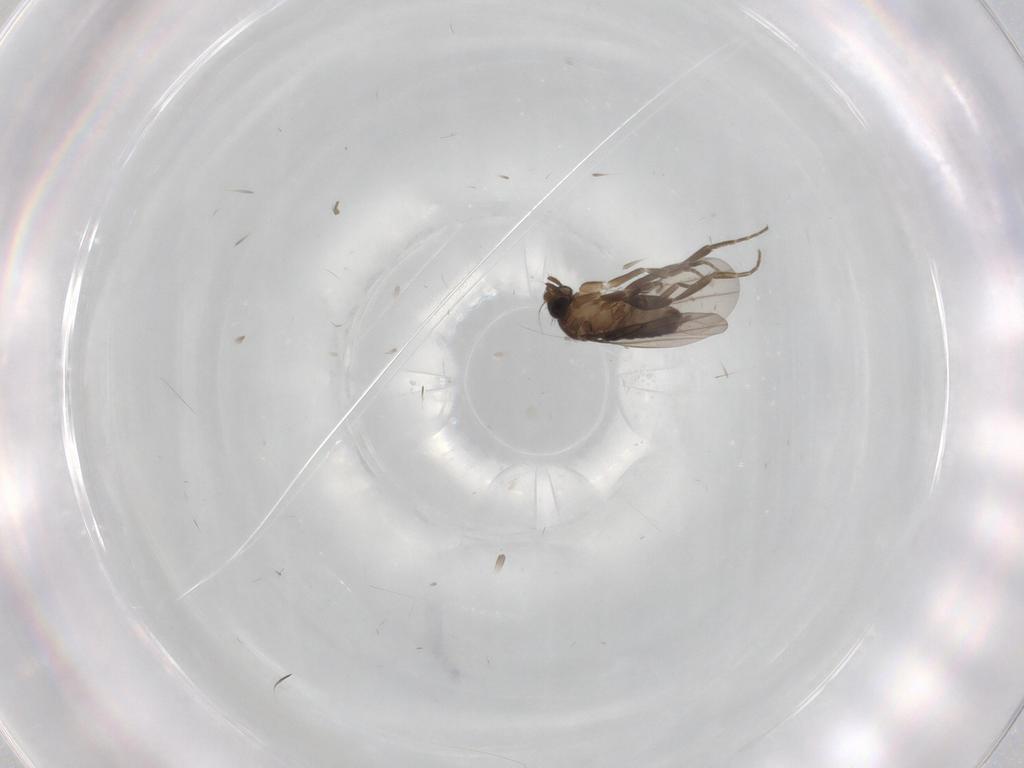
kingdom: Animalia
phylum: Arthropoda
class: Insecta
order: Diptera
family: Phoridae
